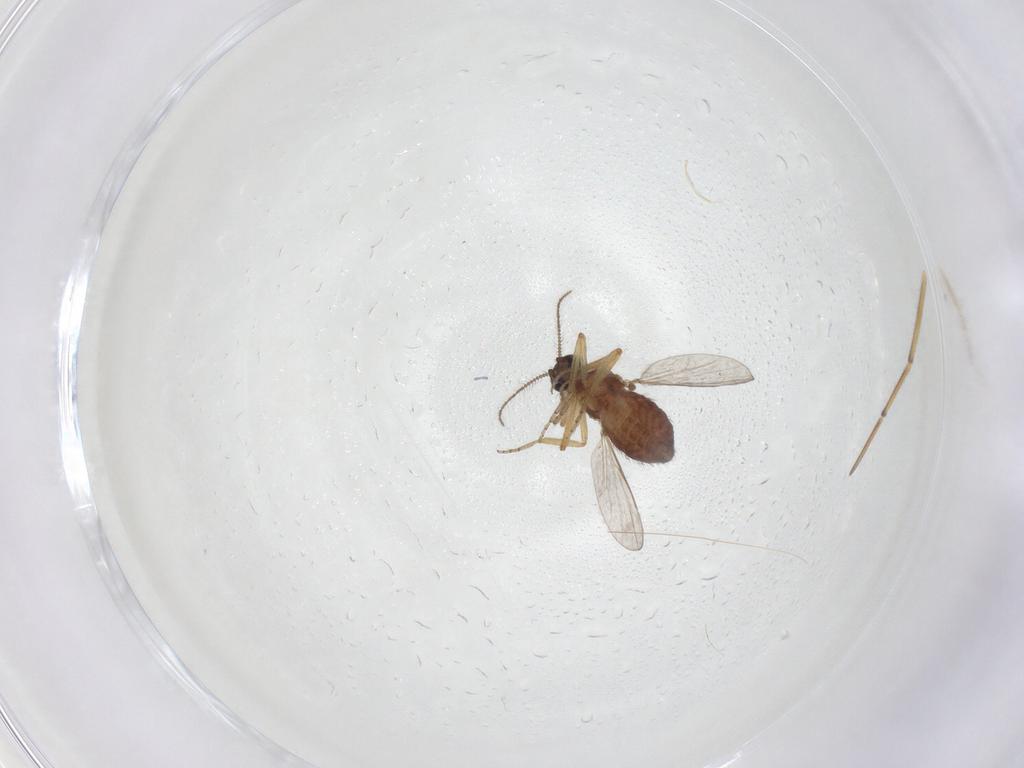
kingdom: Animalia
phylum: Arthropoda
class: Insecta
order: Diptera
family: Ceratopogonidae
